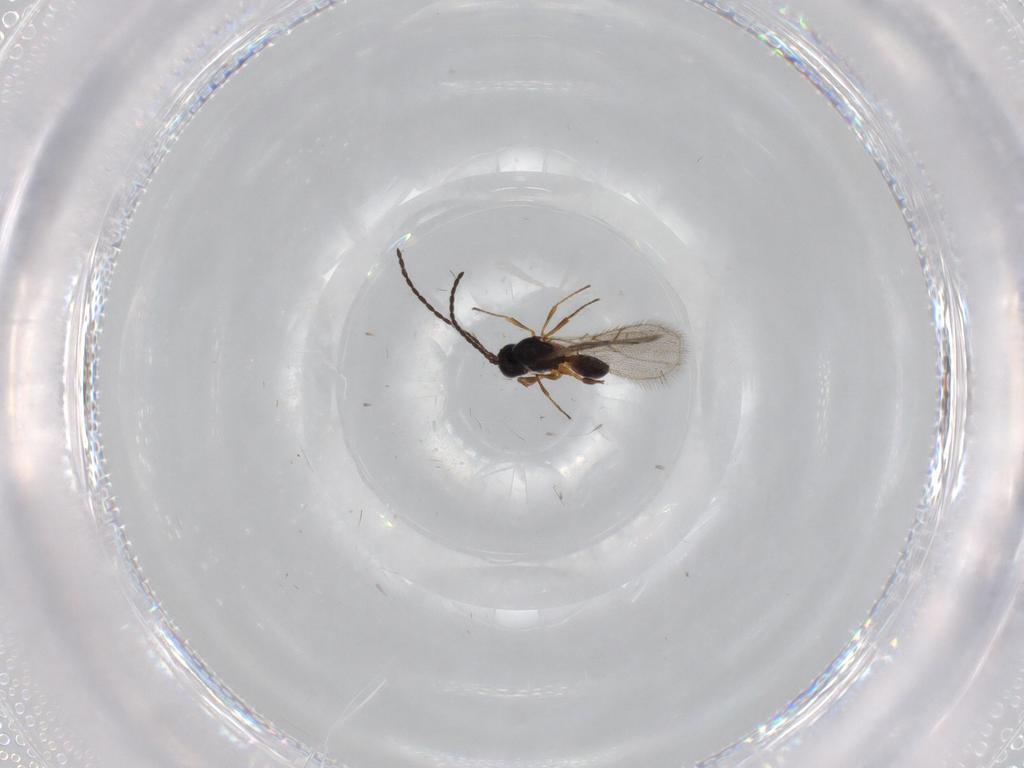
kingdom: Animalia
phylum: Arthropoda
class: Insecta
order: Hymenoptera
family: Figitidae
